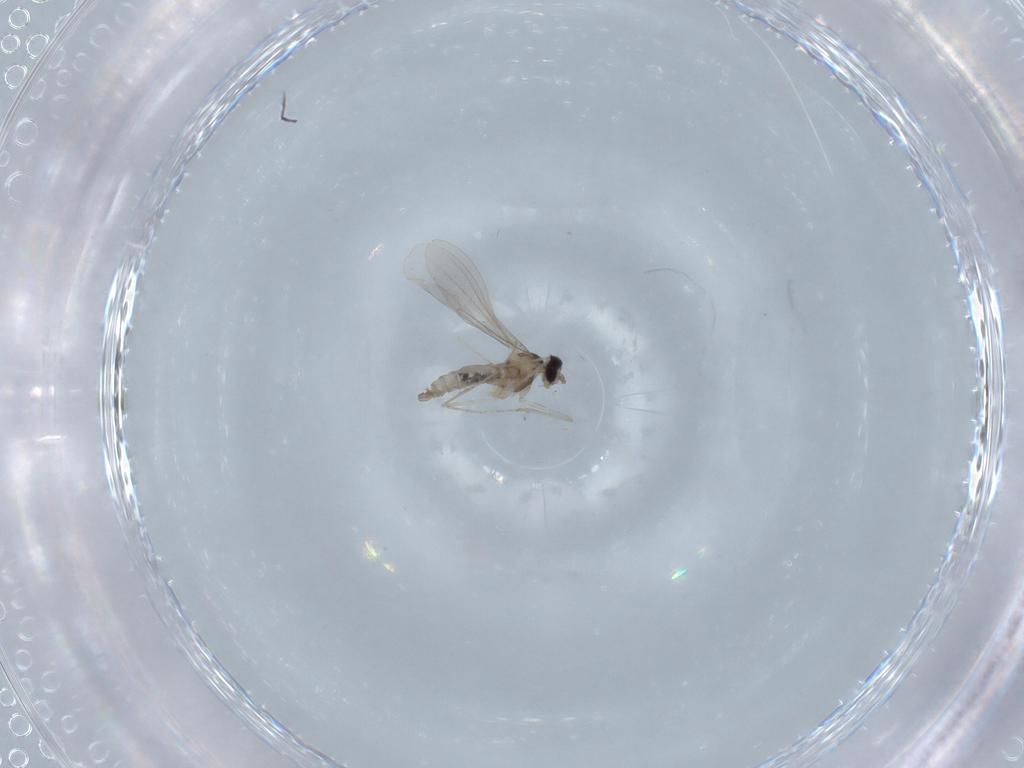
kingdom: Animalia
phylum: Arthropoda
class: Insecta
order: Diptera
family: Cecidomyiidae
